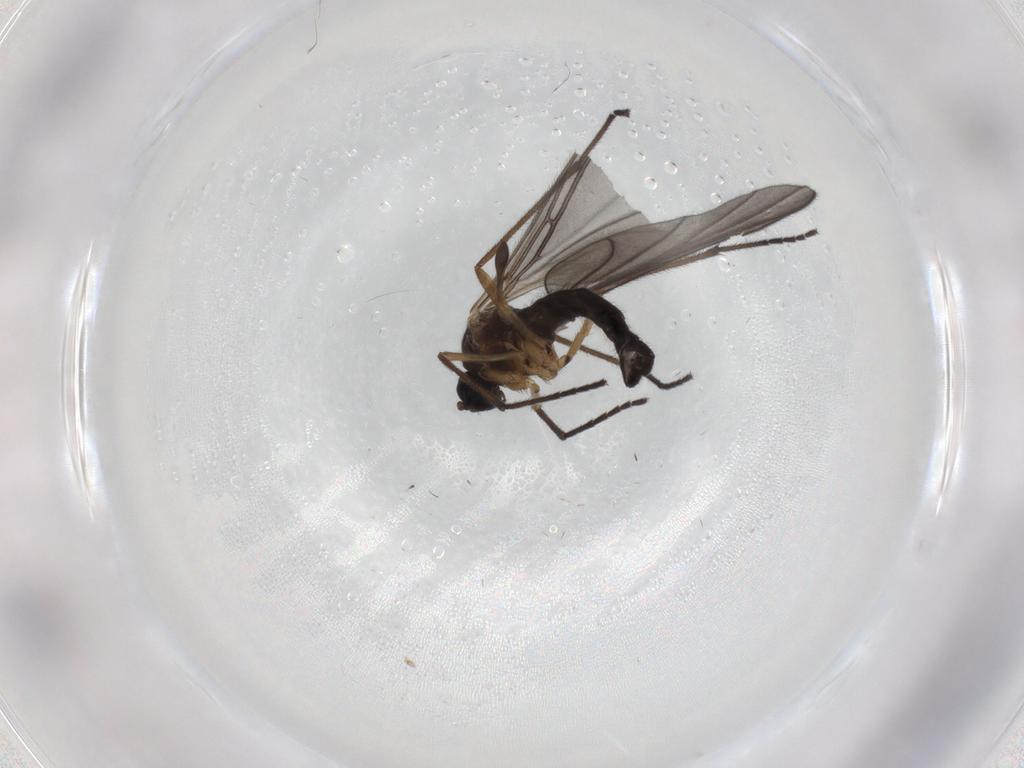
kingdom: Animalia
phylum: Arthropoda
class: Insecta
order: Diptera
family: Sciaridae
